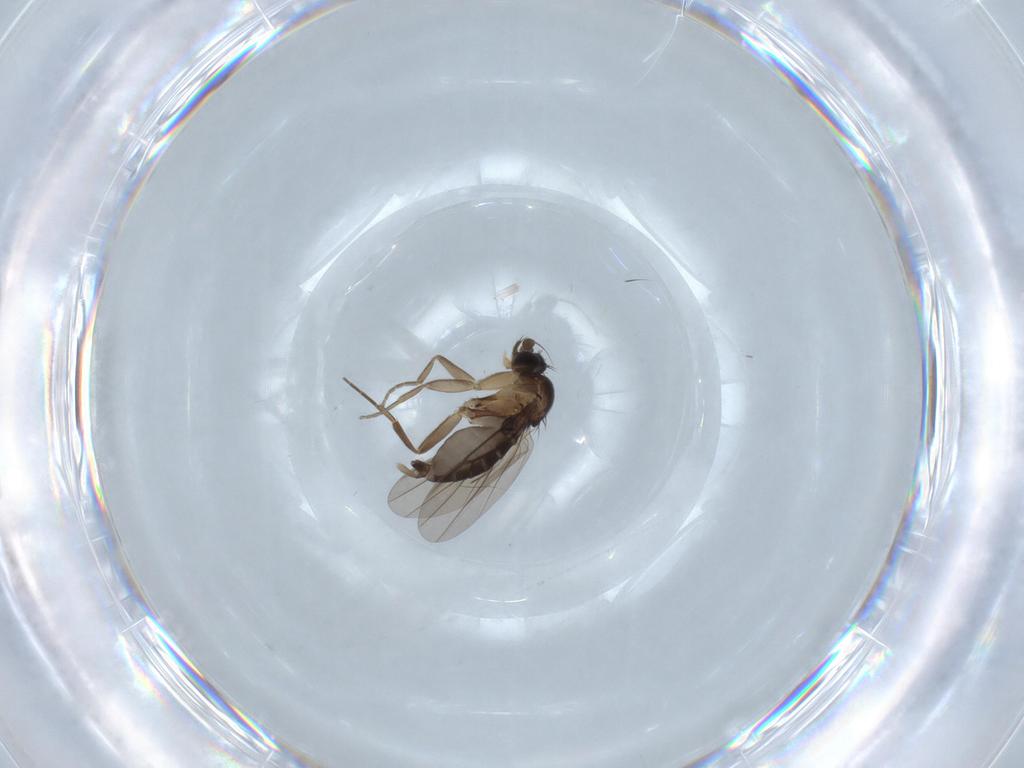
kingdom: Animalia
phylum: Arthropoda
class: Insecta
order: Diptera
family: Phoridae
